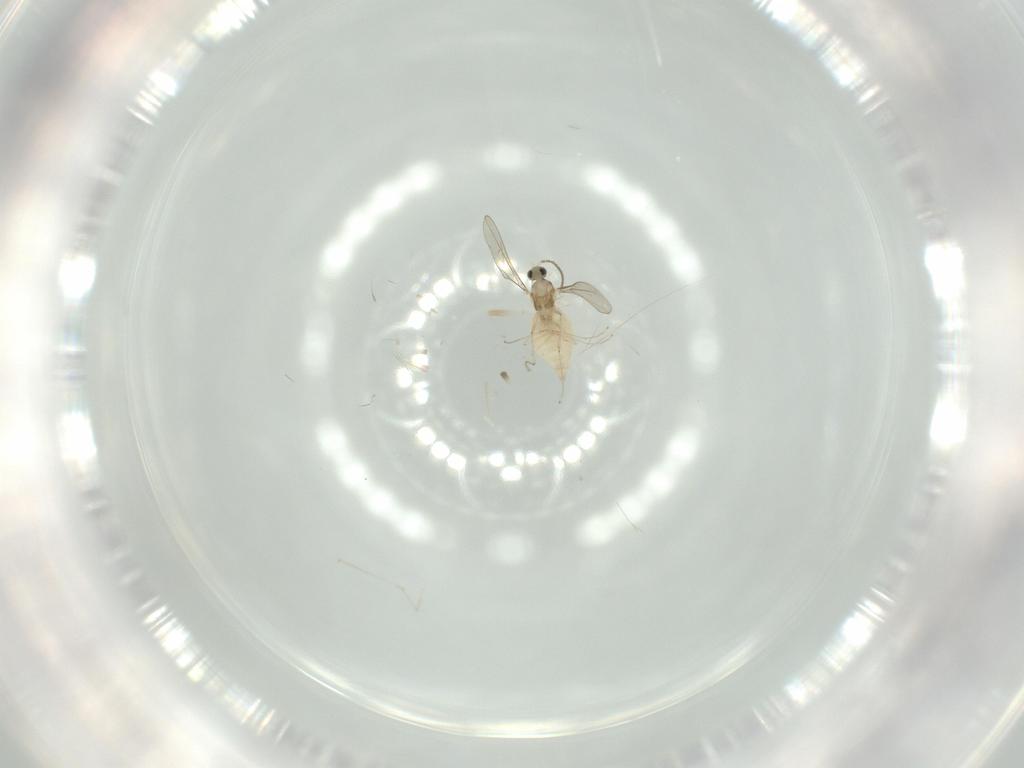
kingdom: Animalia
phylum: Arthropoda
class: Insecta
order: Diptera
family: Cecidomyiidae
